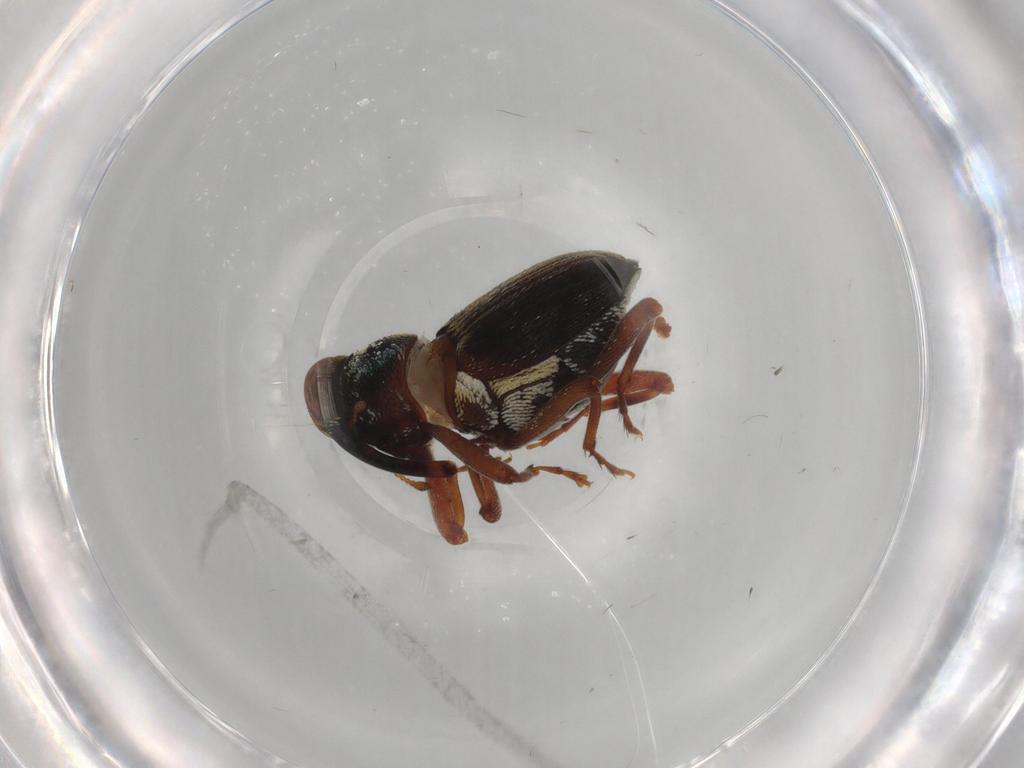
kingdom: Animalia
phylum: Arthropoda
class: Insecta
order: Coleoptera
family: Curculionidae
